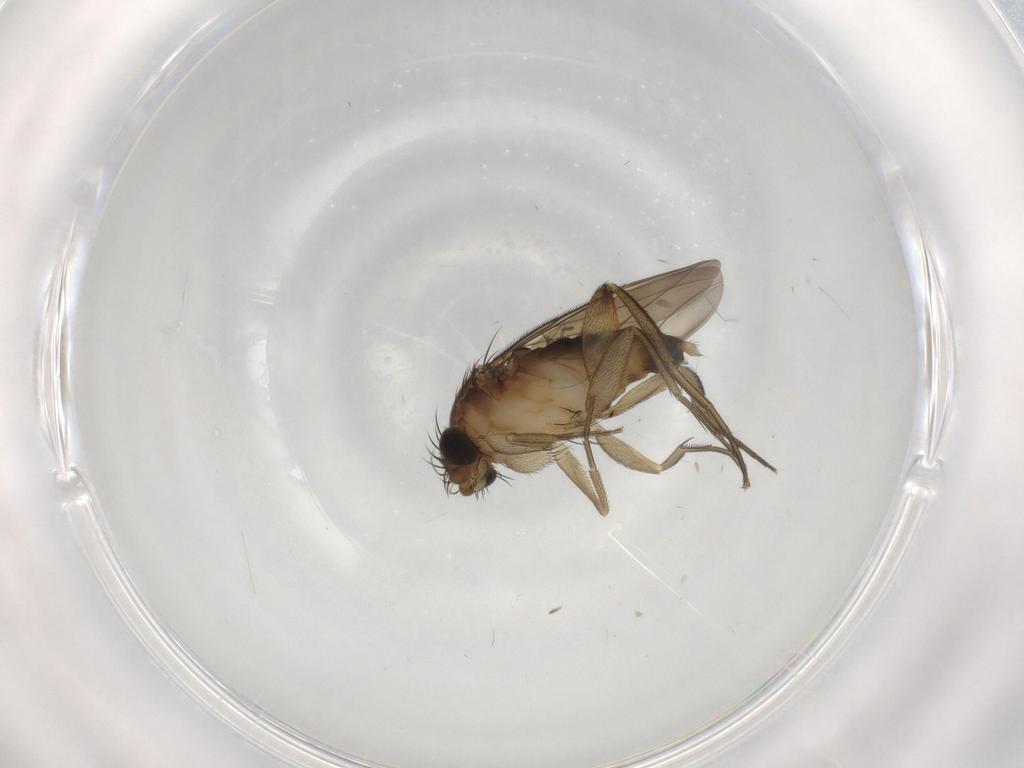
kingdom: Animalia
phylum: Arthropoda
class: Insecta
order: Diptera
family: Phoridae
